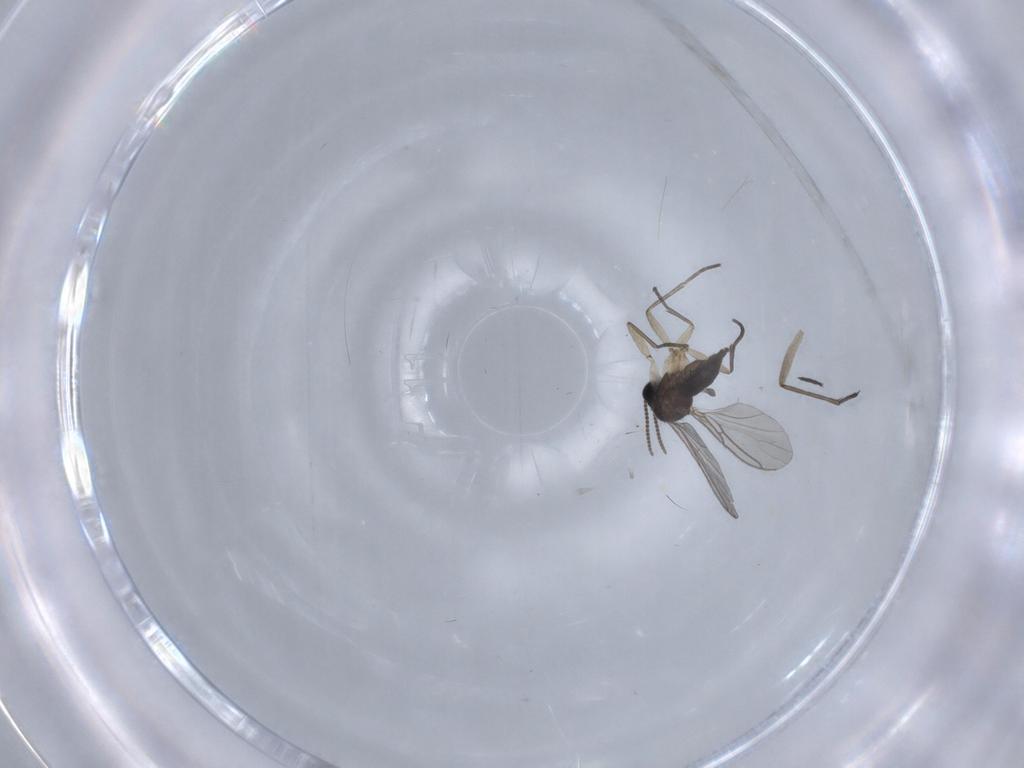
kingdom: Animalia
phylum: Arthropoda
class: Insecta
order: Diptera
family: Sciaridae
